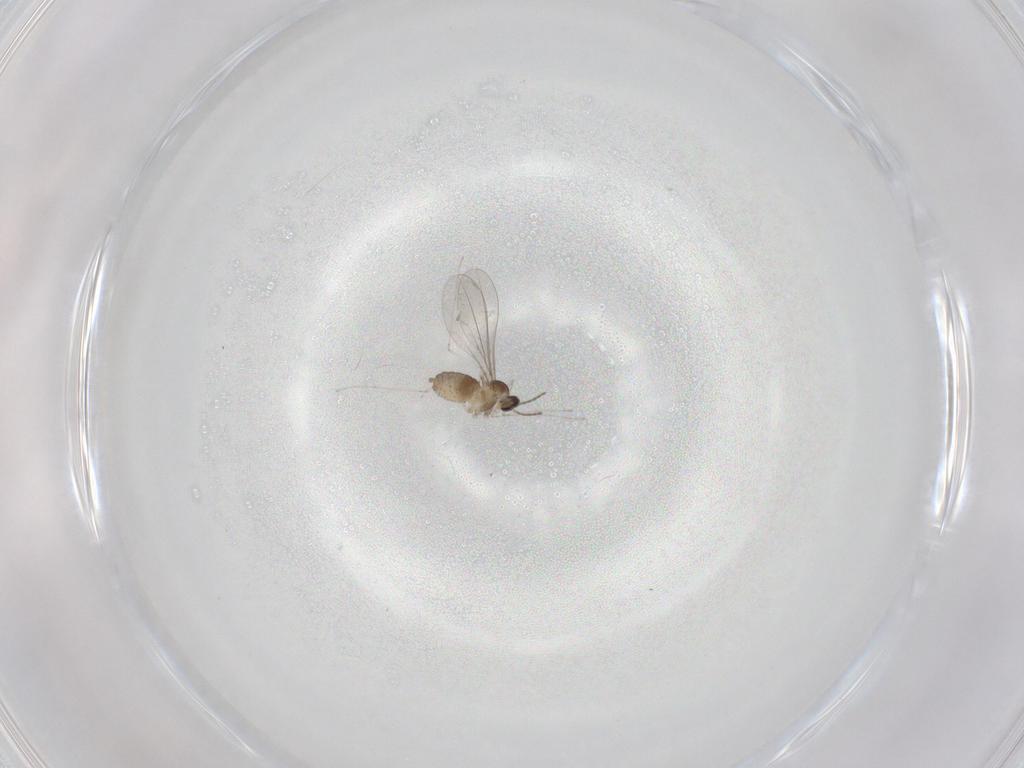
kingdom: Animalia
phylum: Arthropoda
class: Insecta
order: Diptera
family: Cecidomyiidae
